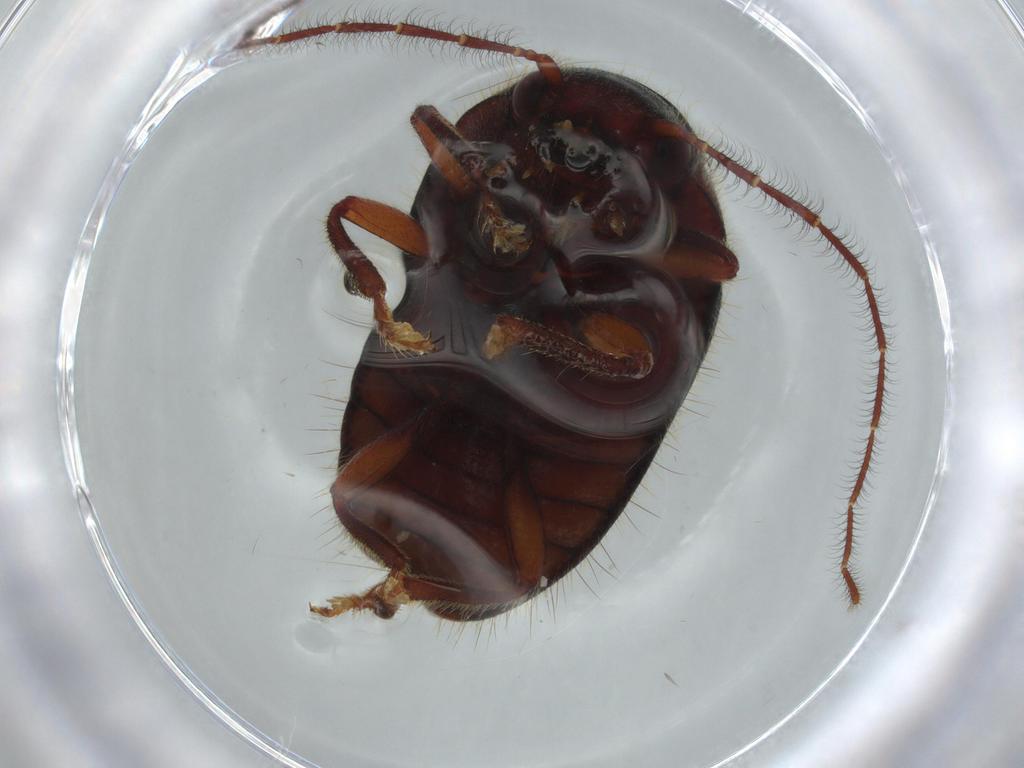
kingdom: Animalia
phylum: Arthropoda
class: Insecta
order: Coleoptera
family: Artematopodidae
